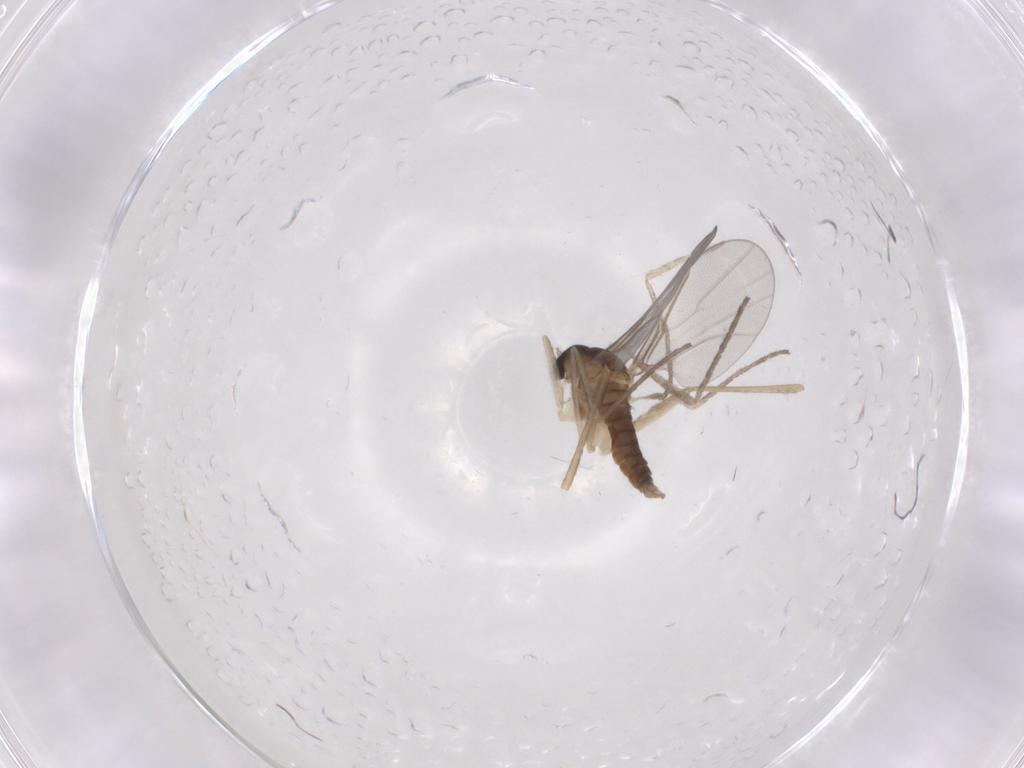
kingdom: Animalia
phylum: Arthropoda
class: Insecta
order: Diptera
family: Cecidomyiidae
